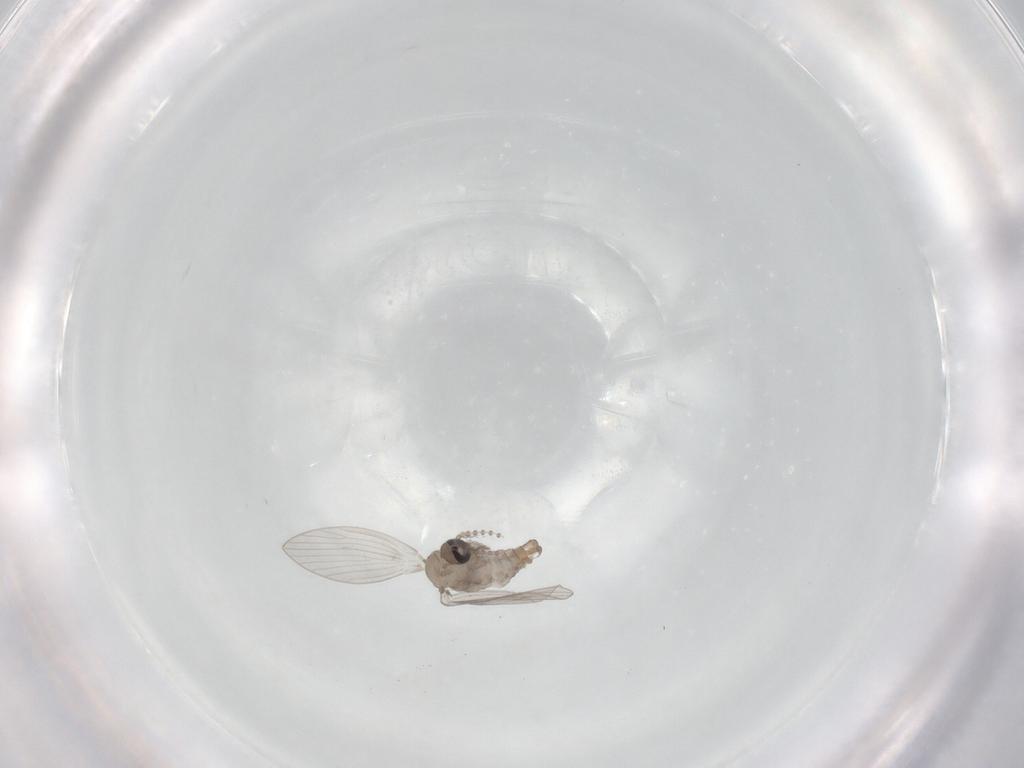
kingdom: Animalia
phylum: Arthropoda
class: Insecta
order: Diptera
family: Psychodidae
